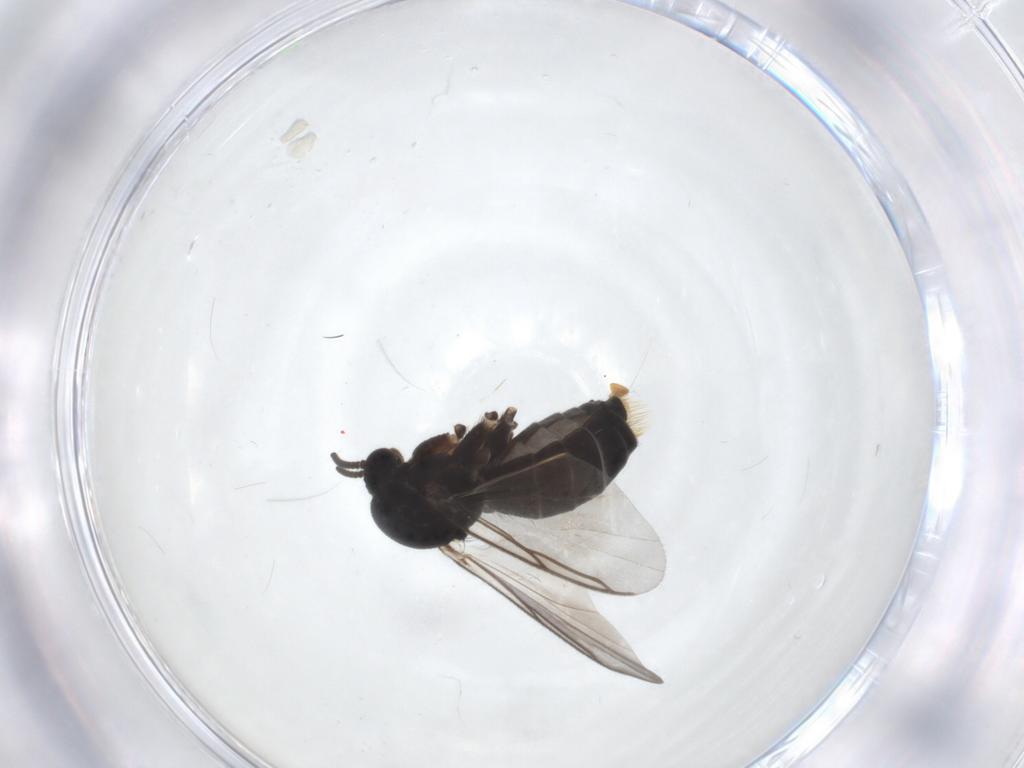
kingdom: Animalia
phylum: Arthropoda
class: Insecta
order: Diptera
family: Mycetophilidae
